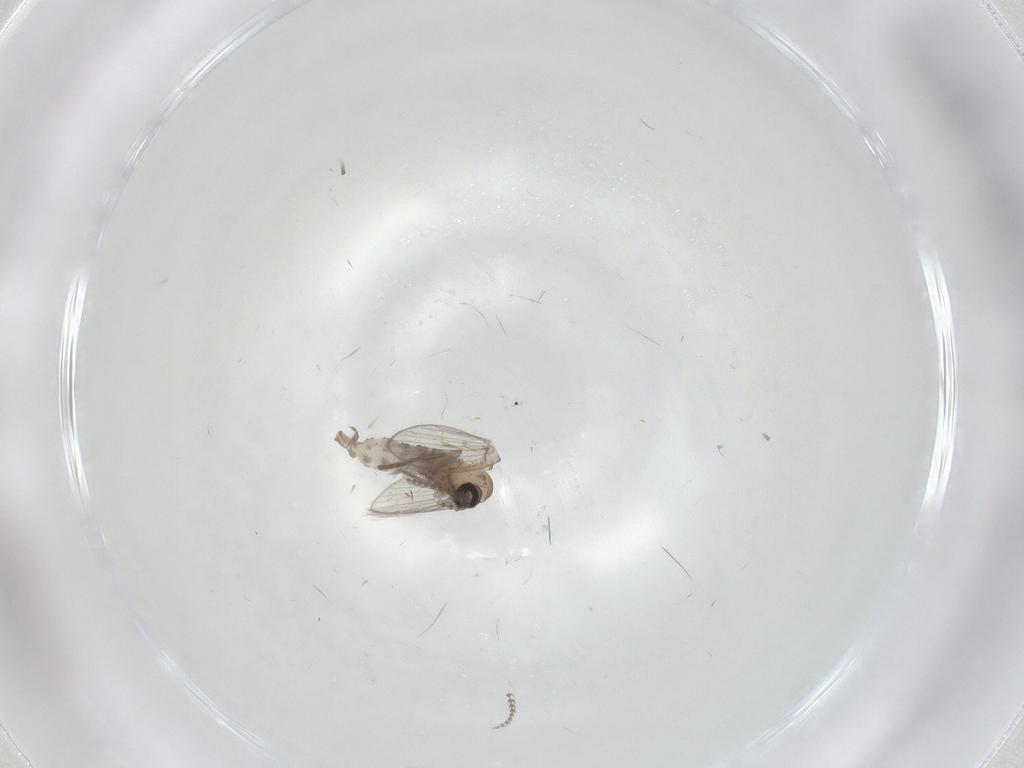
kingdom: Animalia
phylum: Arthropoda
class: Insecta
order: Diptera
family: Psychodidae
